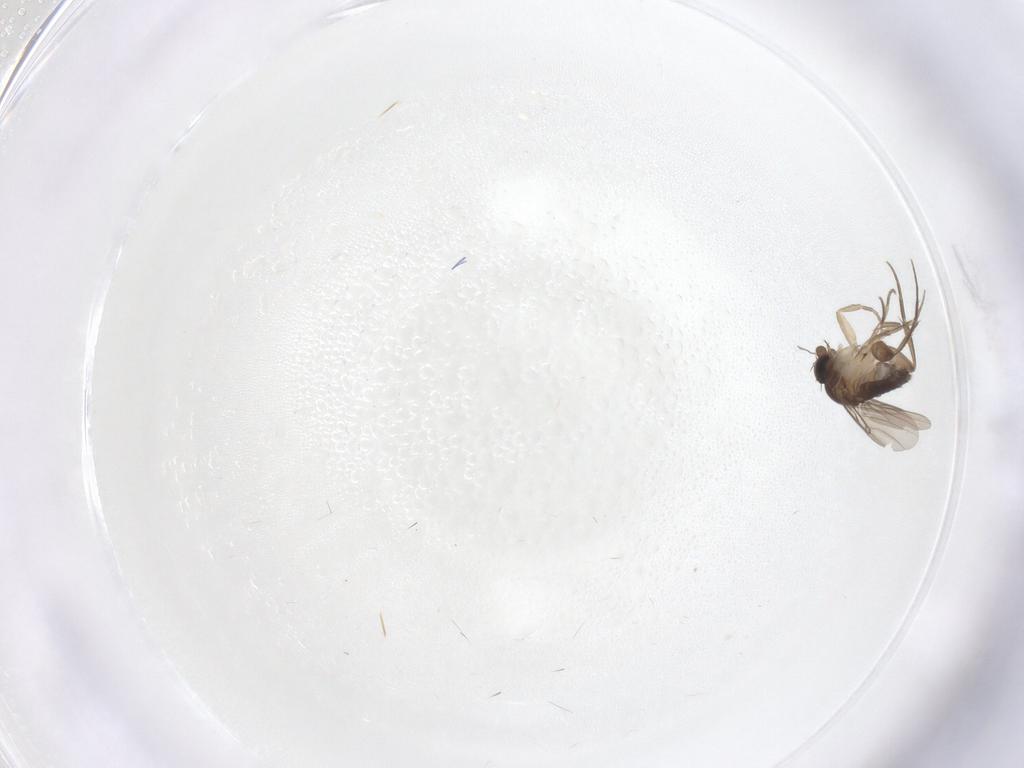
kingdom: Animalia
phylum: Arthropoda
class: Insecta
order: Diptera
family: Phoridae
